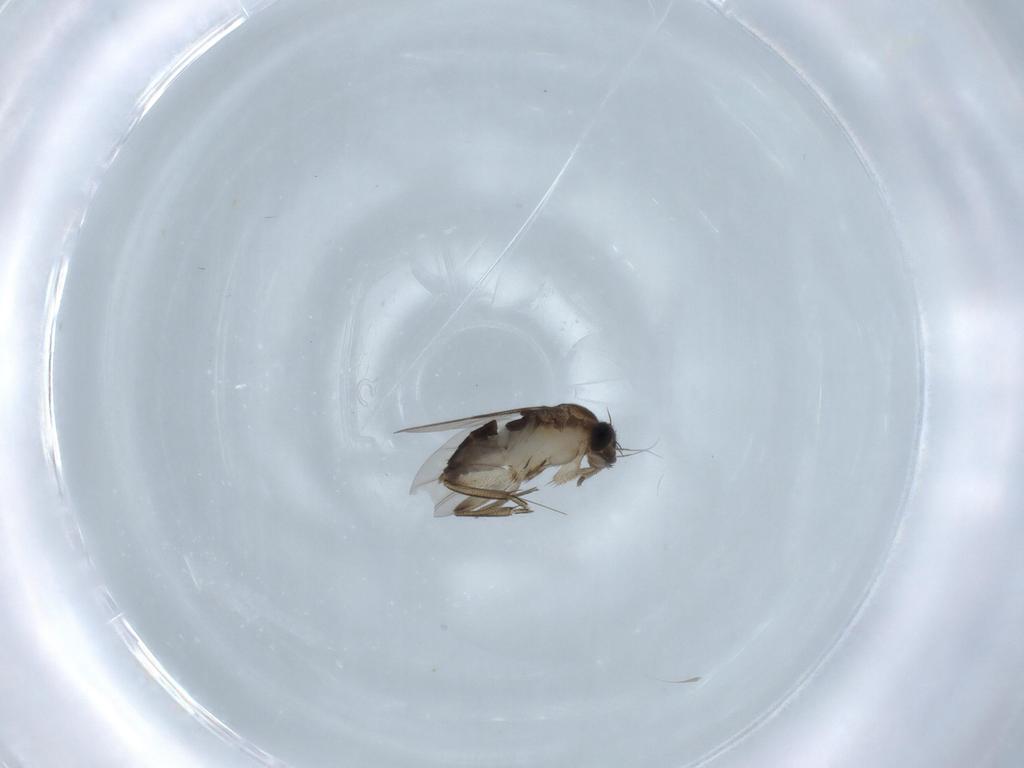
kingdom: Animalia
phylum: Arthropoda
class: Insecta
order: Diptera
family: Phoridae
